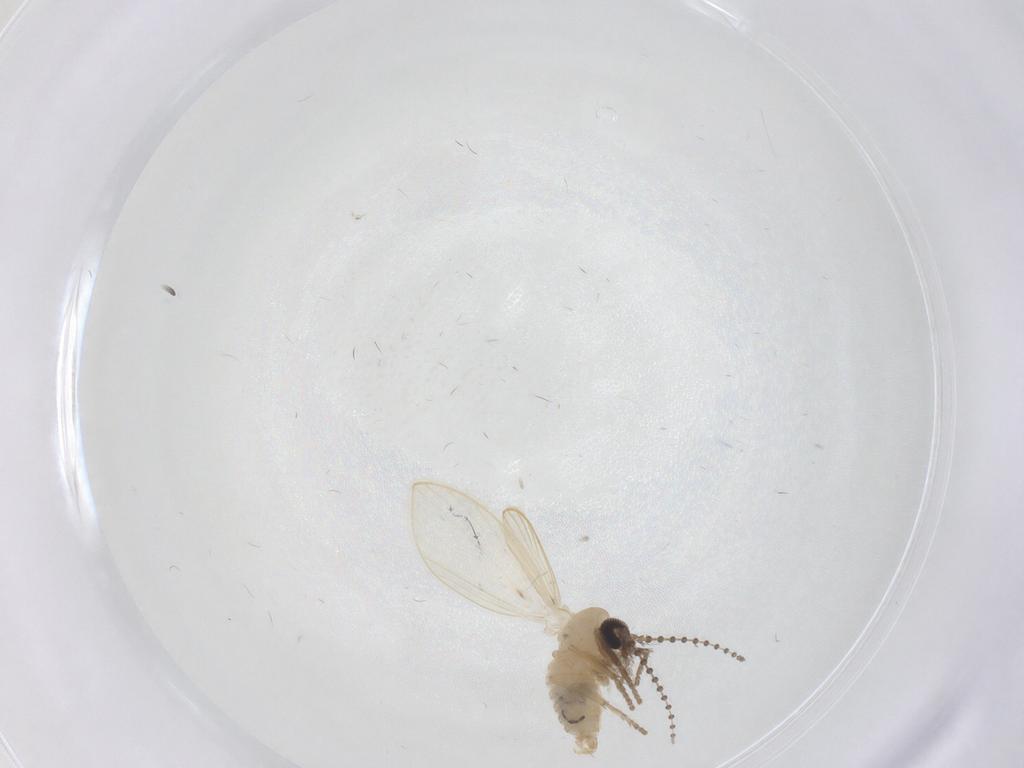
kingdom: Animalia
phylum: Arthropoda
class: Insecta
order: Diptera
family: Psychodidae
